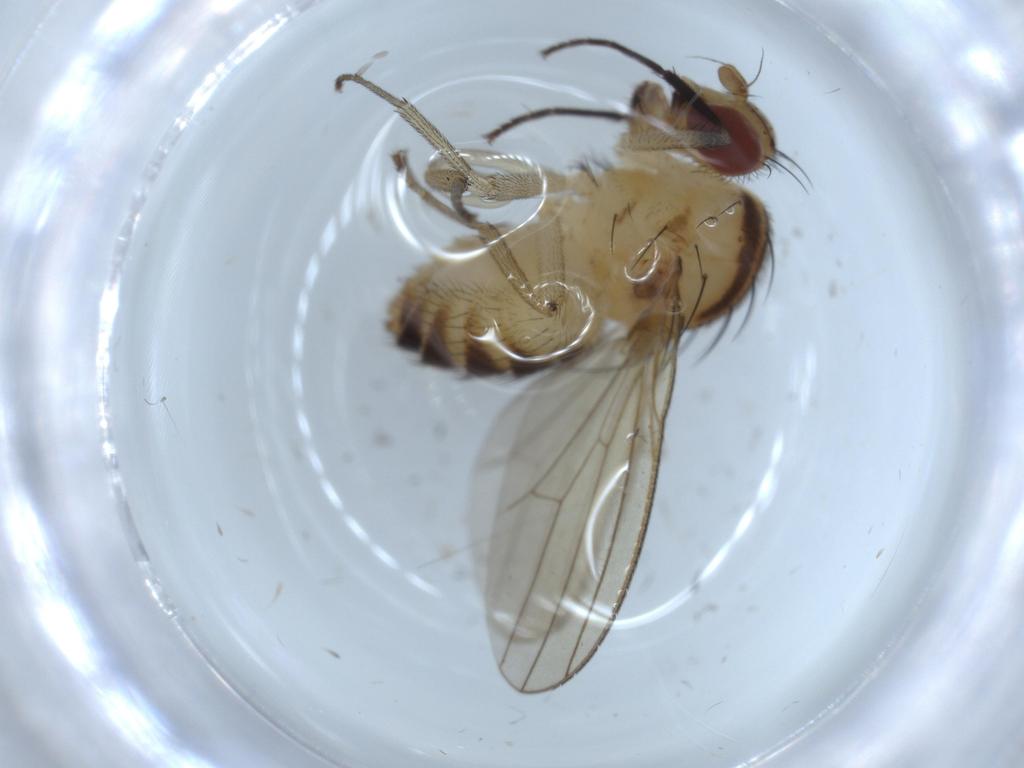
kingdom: Animalia
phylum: Arthropoda
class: Insecta
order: Diptera
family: Cecidomyiidae
